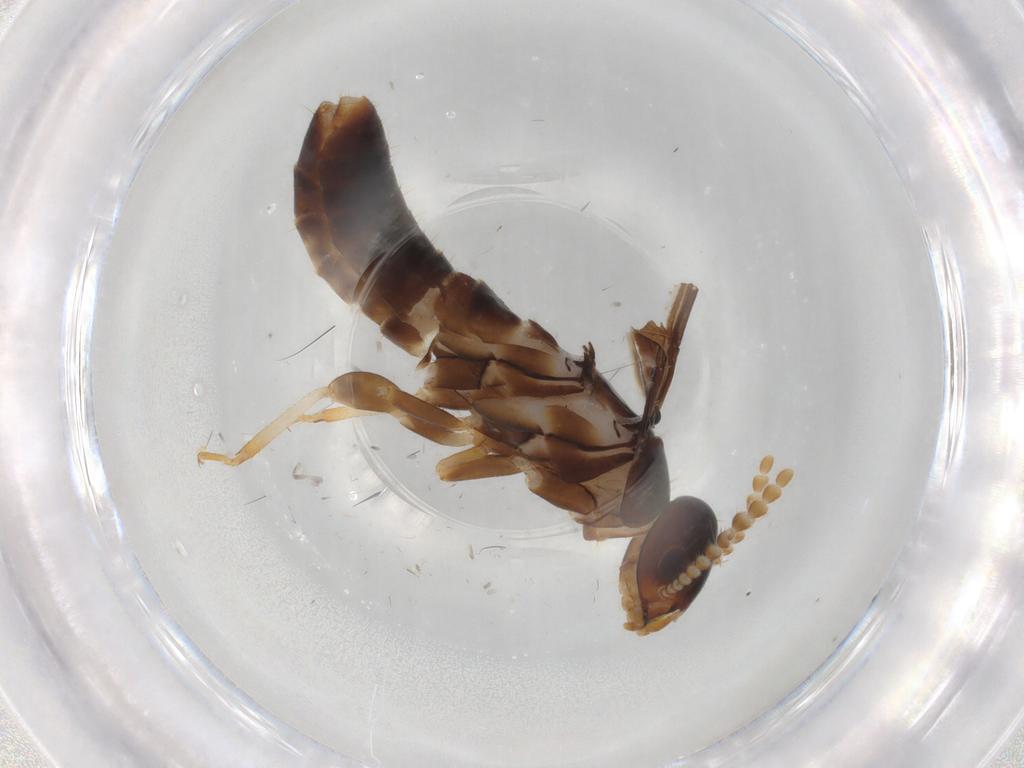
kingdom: Animalia
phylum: Arthropoda
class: Insecta
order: Blattodea
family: Kalotermitidae
